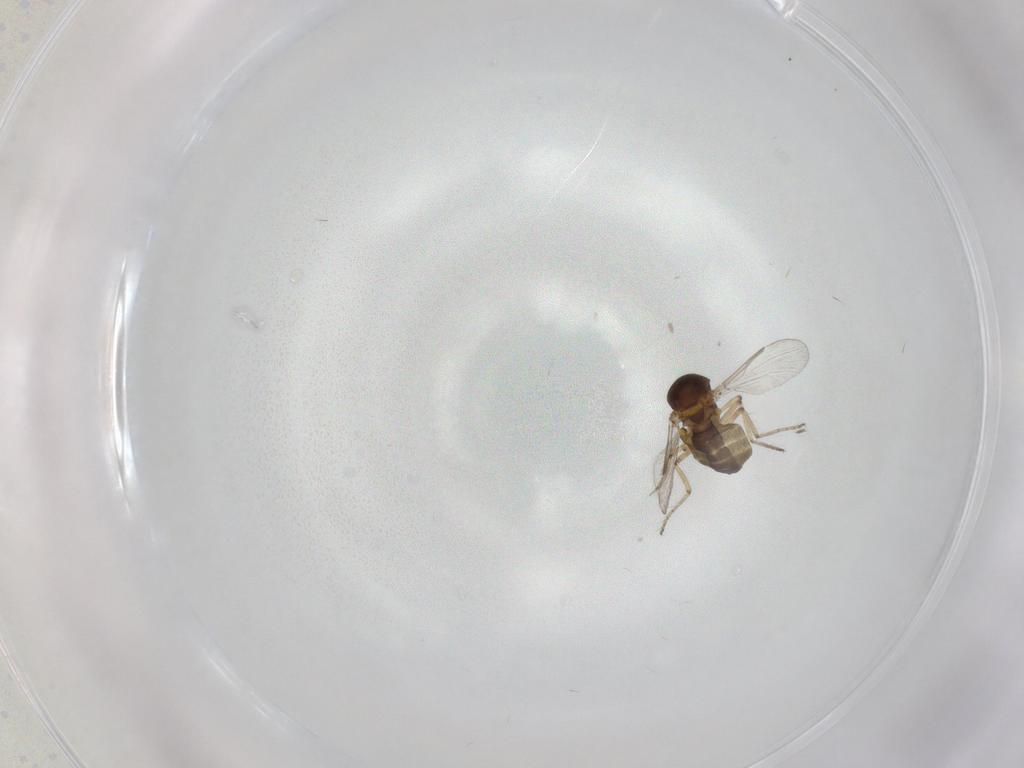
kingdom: Animalia
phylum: Arthropoda
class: Insecta
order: Diptera
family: Ceratopogonidae
